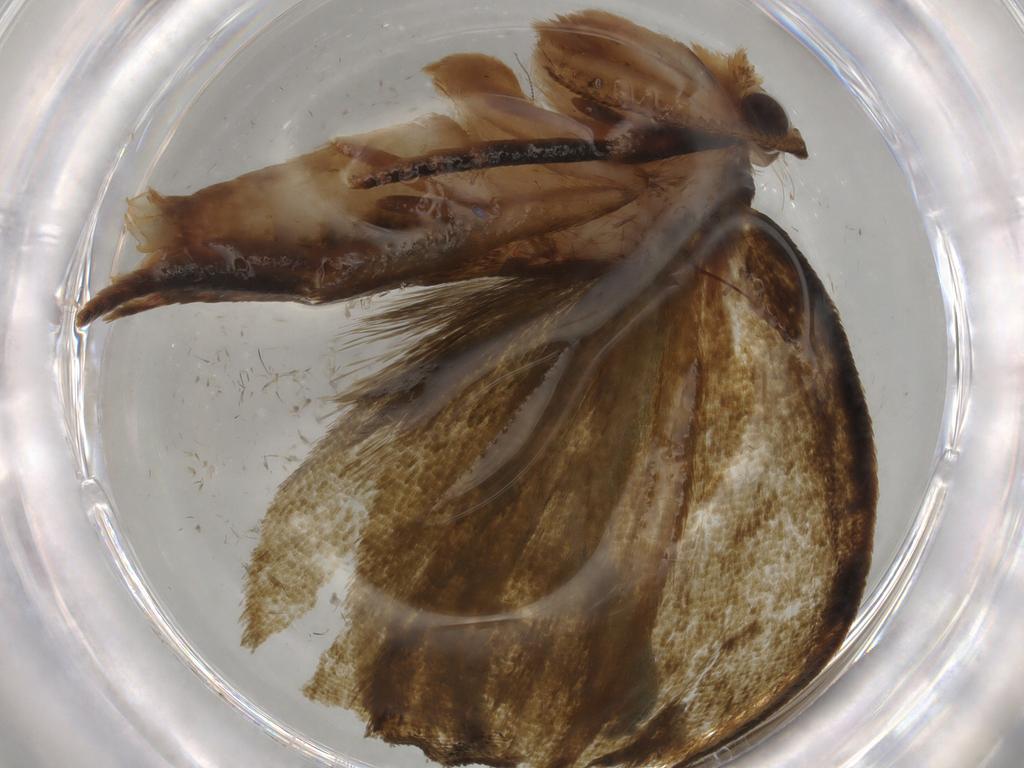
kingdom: Animalia
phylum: Arthropoda
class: Insecta
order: Lepidoptera
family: Geometridae
